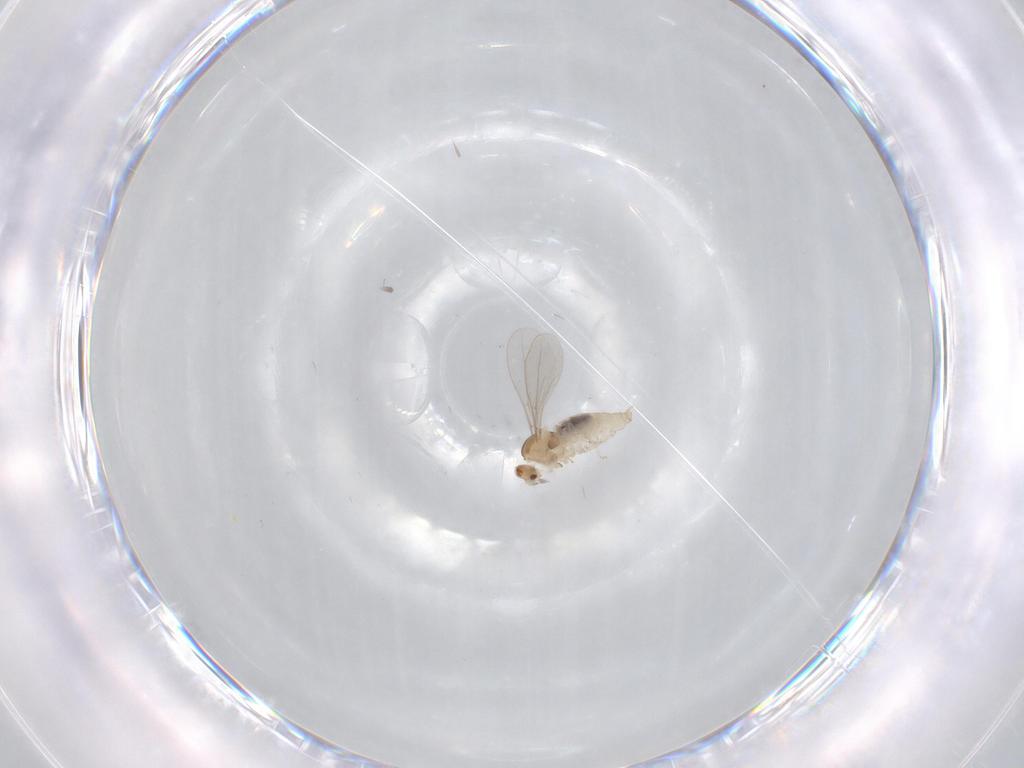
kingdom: Animalia
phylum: Arthropoda
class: Insecta
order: Diptera
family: Cecidomyiidae
